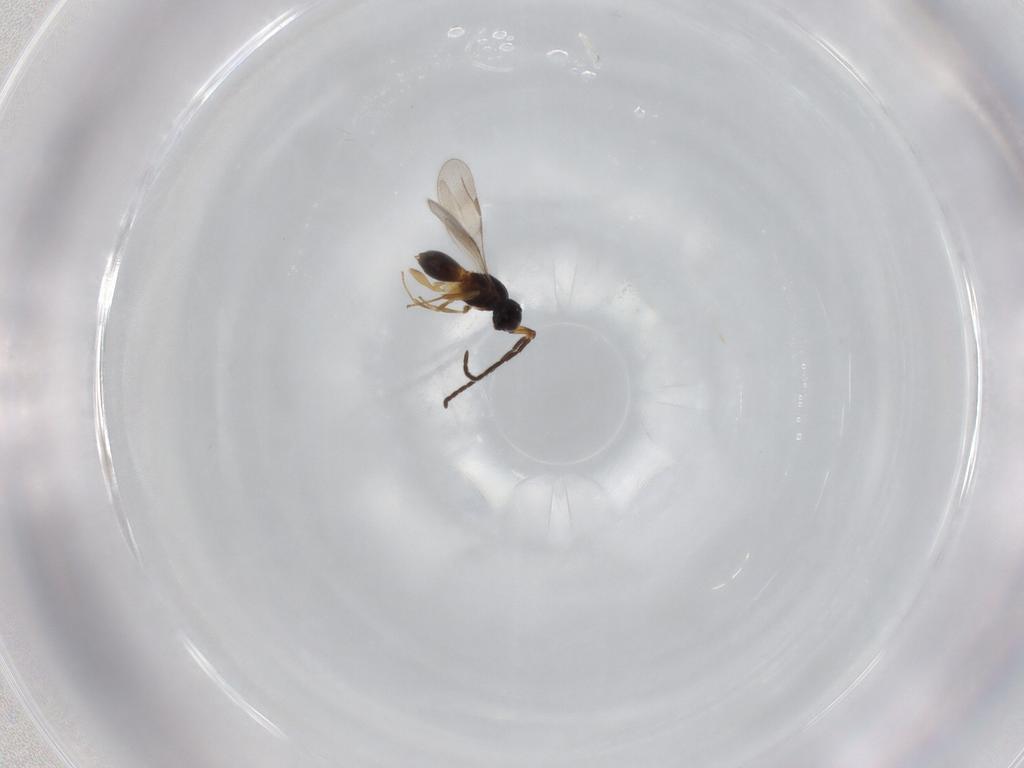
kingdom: Animalia
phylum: Arthropoda
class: Insecta
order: Hymenoptera
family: Megaspilidae
